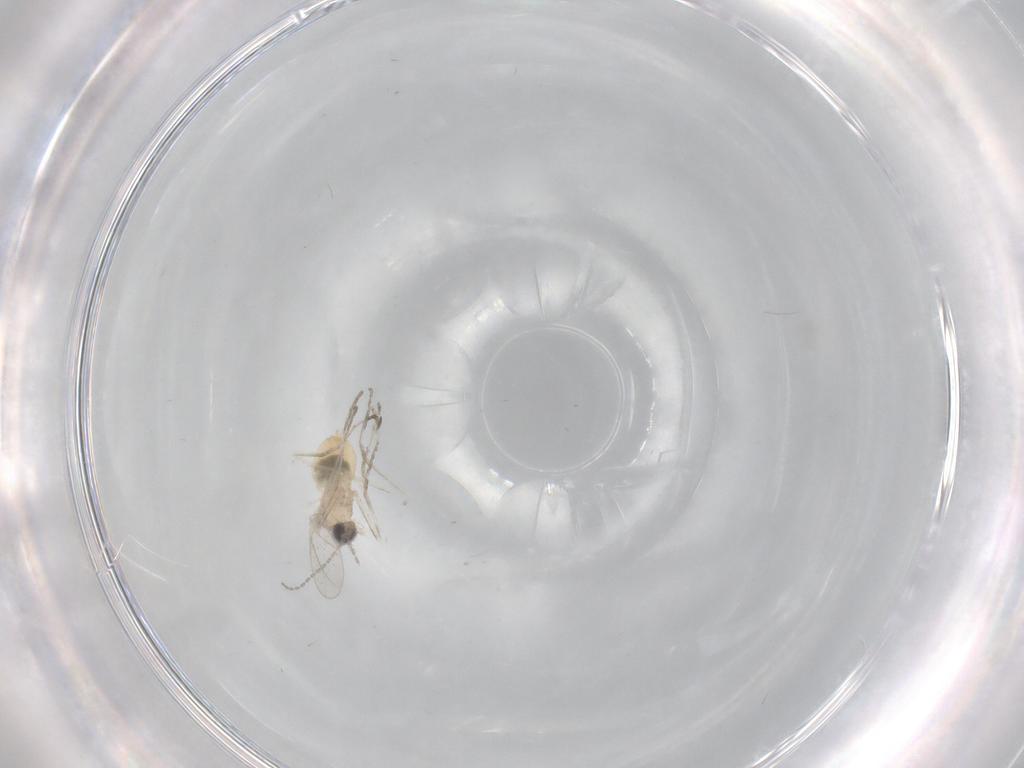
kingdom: Animalia
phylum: Arthropoda
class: Insecta
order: Diptera
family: Cecidomyiidae
